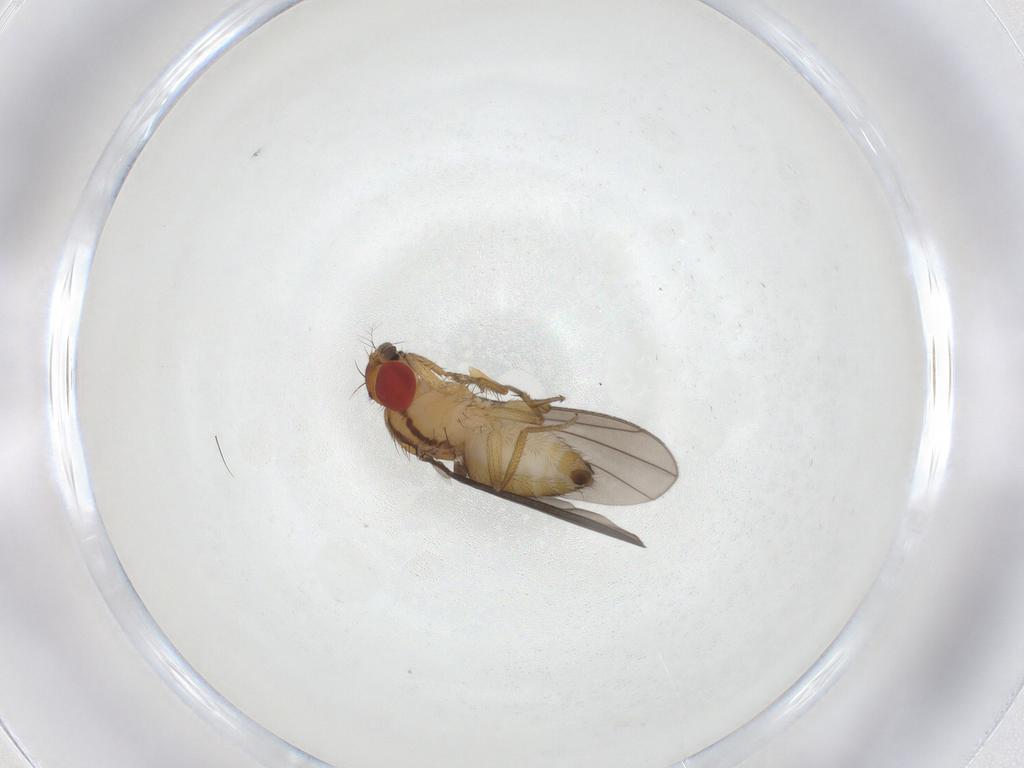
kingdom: Animalia
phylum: Arthropoda
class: Insecta
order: Diptera
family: Drosophilidae
